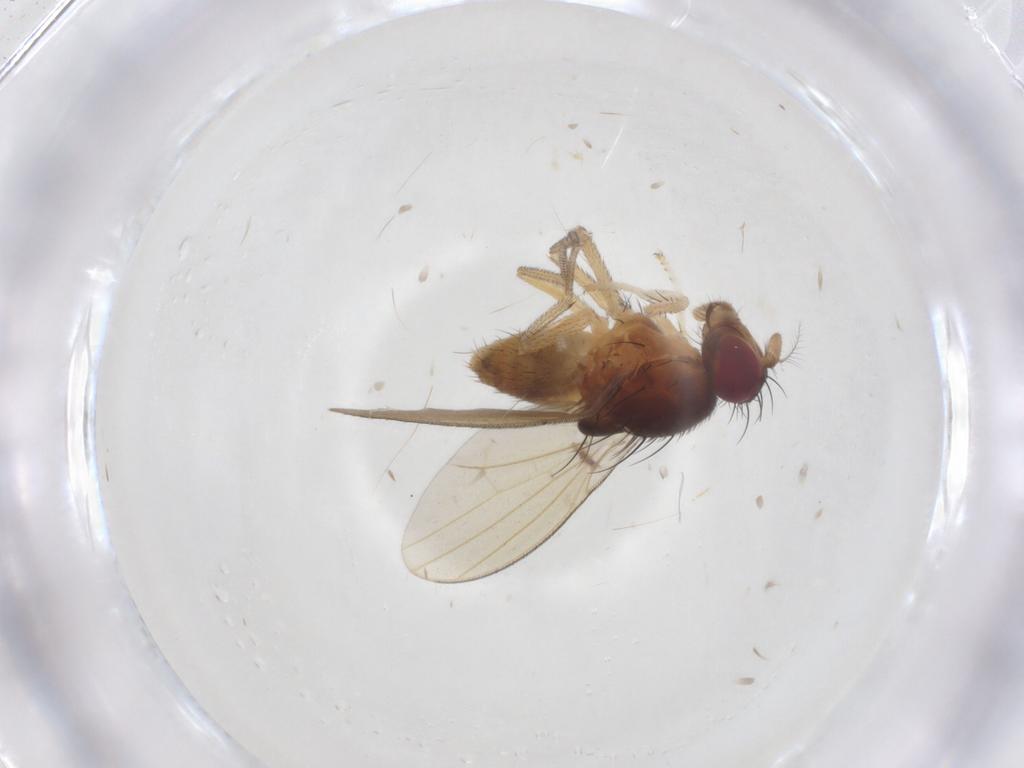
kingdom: Animalia
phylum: Arthropoda
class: Insecta
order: Diptera
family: Lauxaniidae
